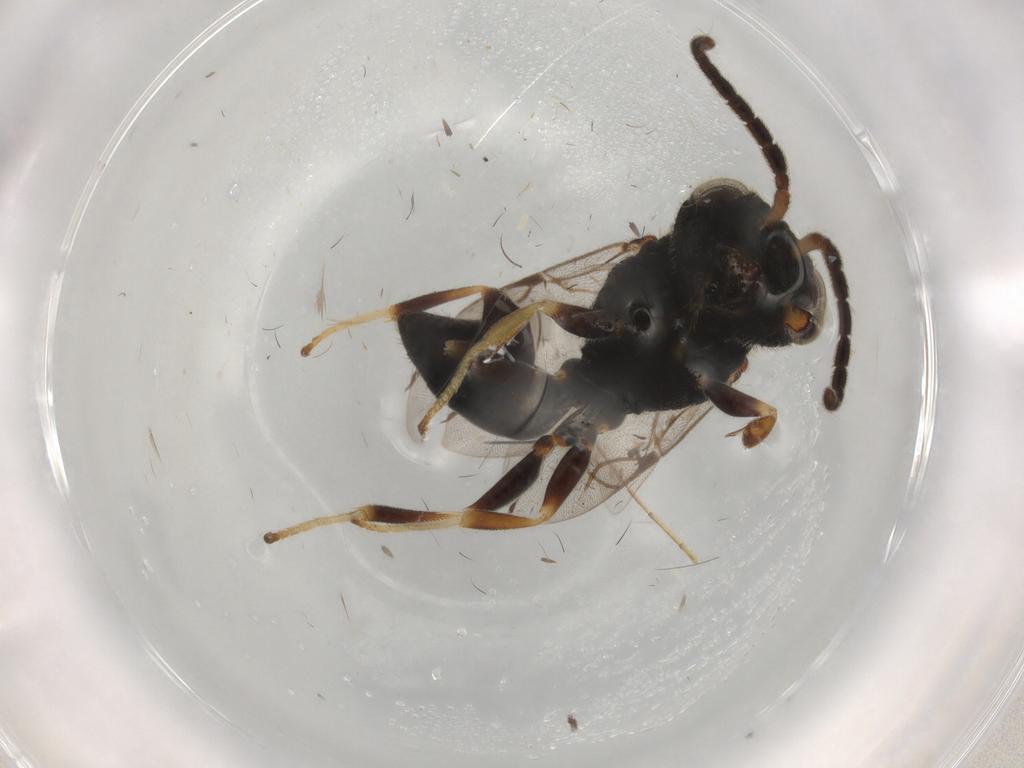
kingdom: Animalia
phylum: Arthropoda
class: Insecta
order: Hymenoptera
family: Dryinidae
